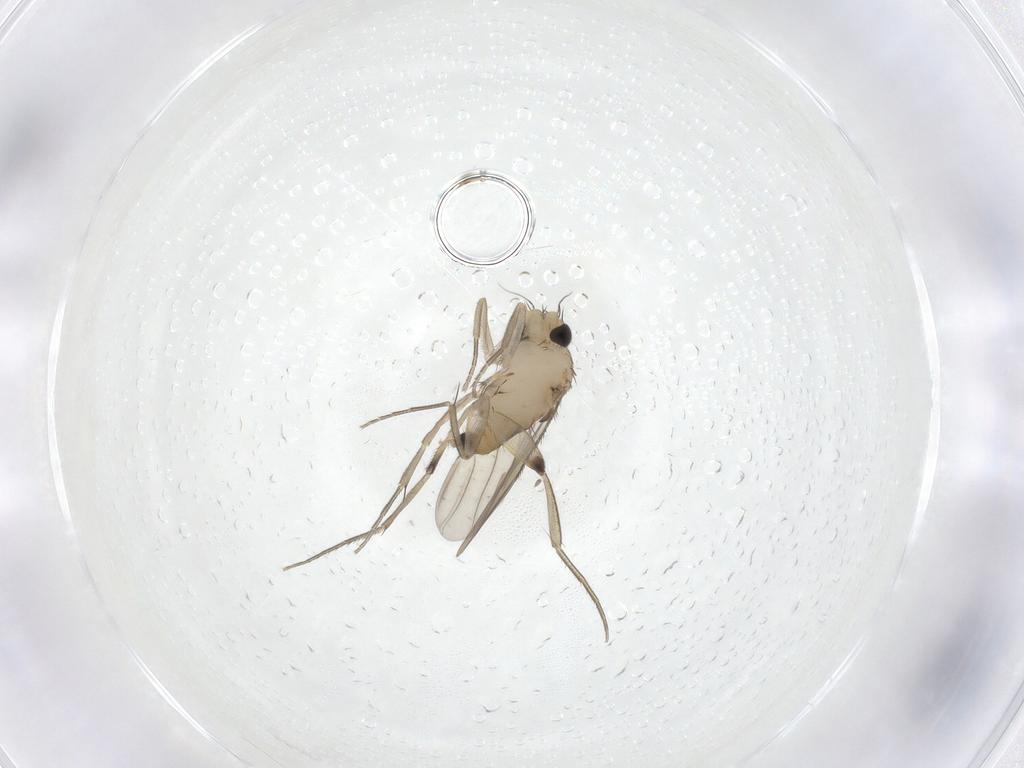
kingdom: Animalia
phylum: Arthropoda
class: Insecta
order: Diptera
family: Phoridae
